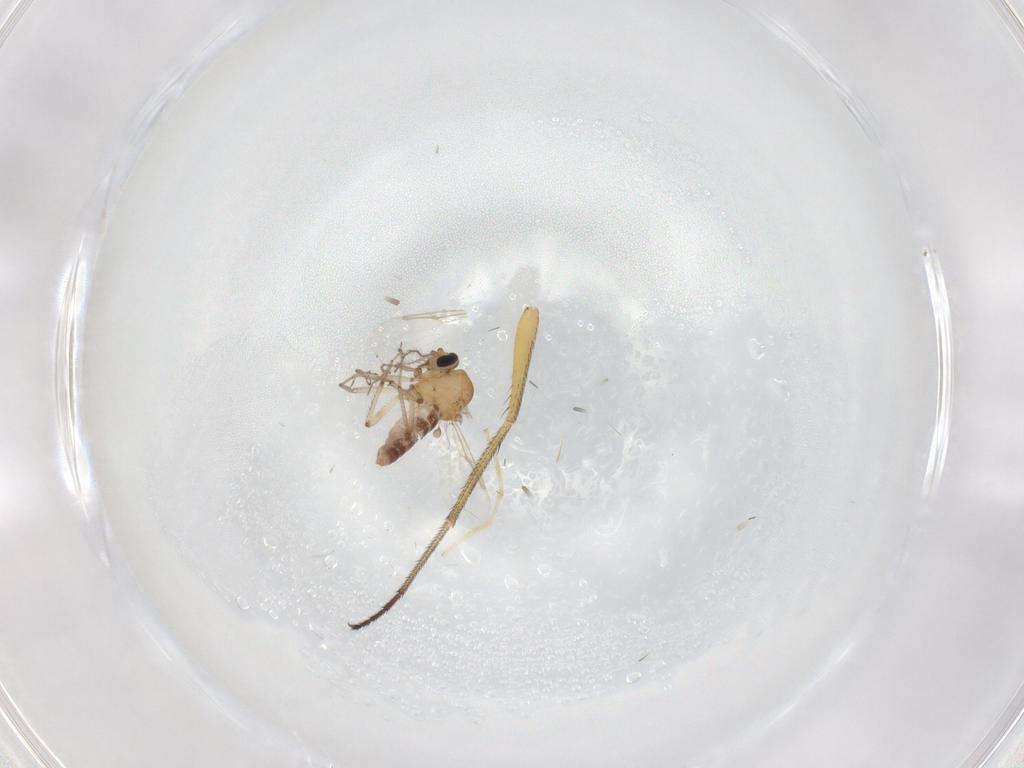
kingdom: Animalia
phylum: Arthropoda
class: Insecta
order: Diptera
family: Ceratopogonidae
